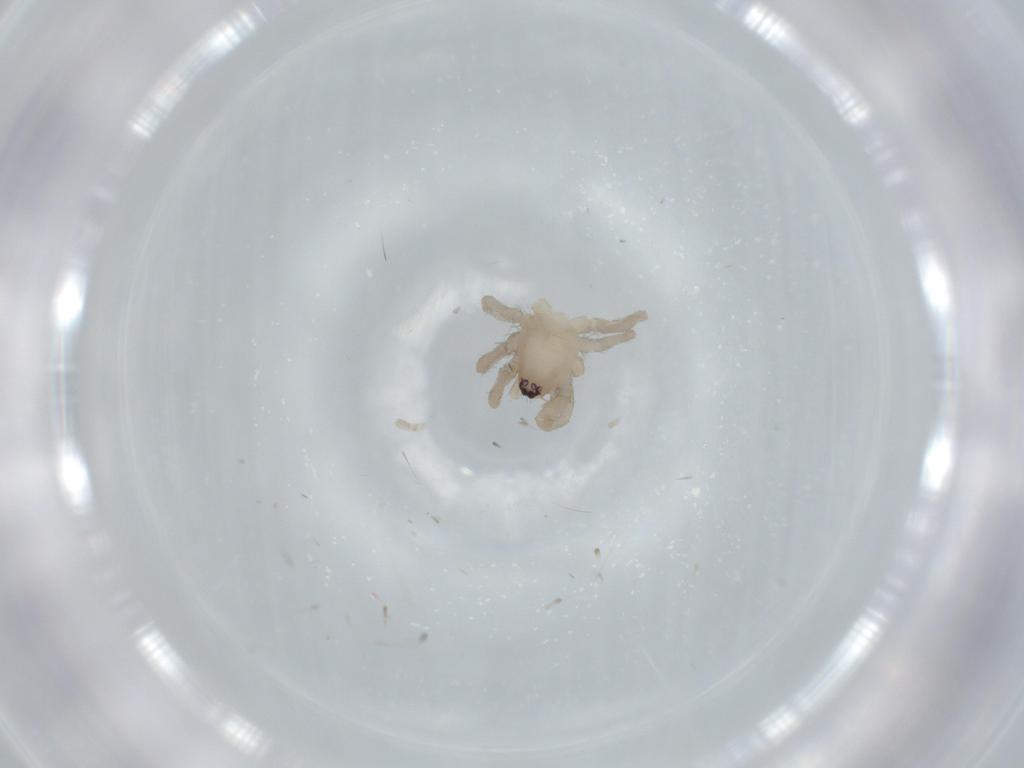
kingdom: Animalia
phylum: Arthropoda
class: Arachnida
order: Araneae
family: Gnaphosidae
